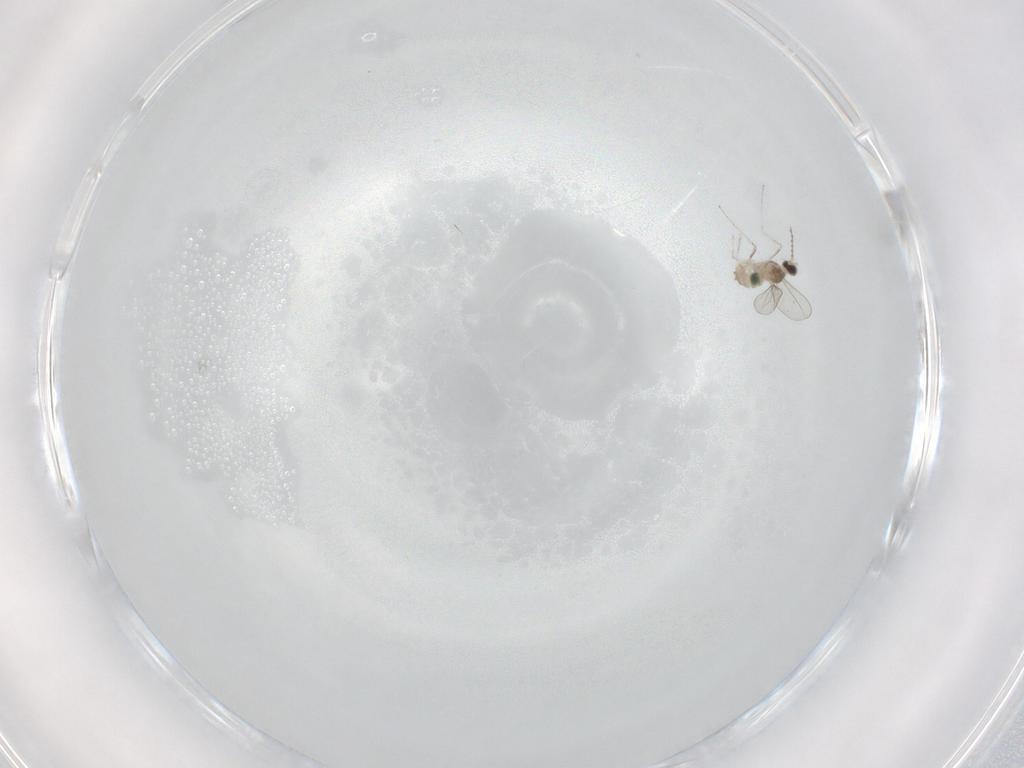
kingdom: Animalia
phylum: Arthropoda
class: Insecta
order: Diptera
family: Cecidomyiidae
